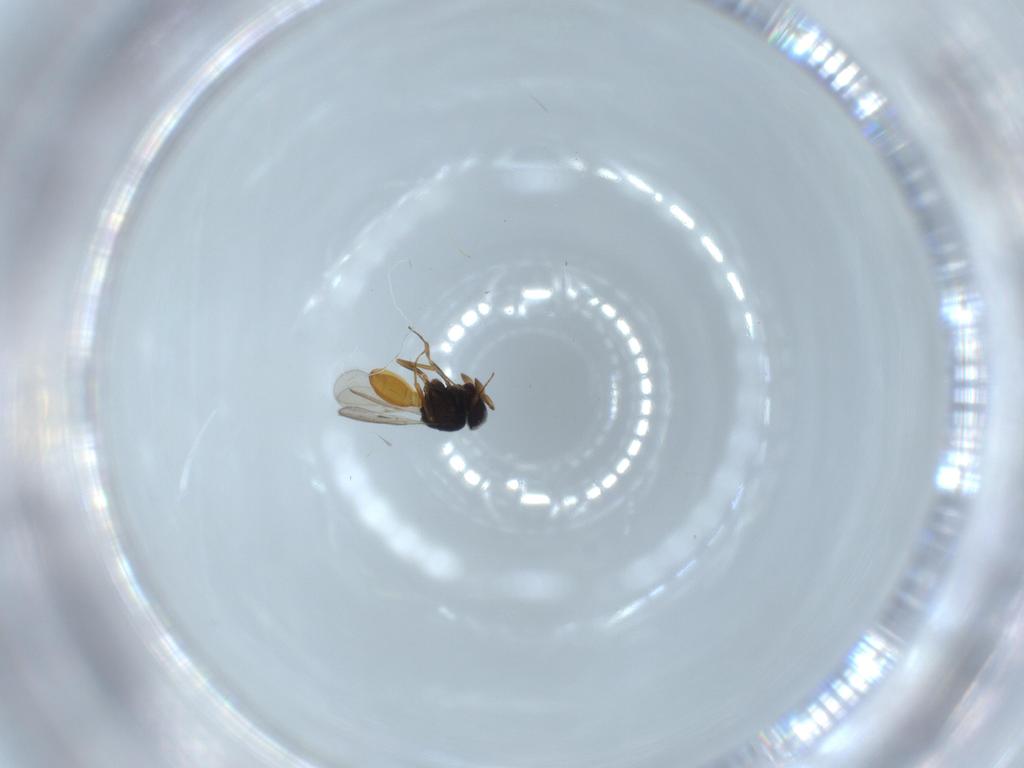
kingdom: Animalia
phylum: Arthropoda
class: Insecta
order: Hymenoptera
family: Scelionidae
